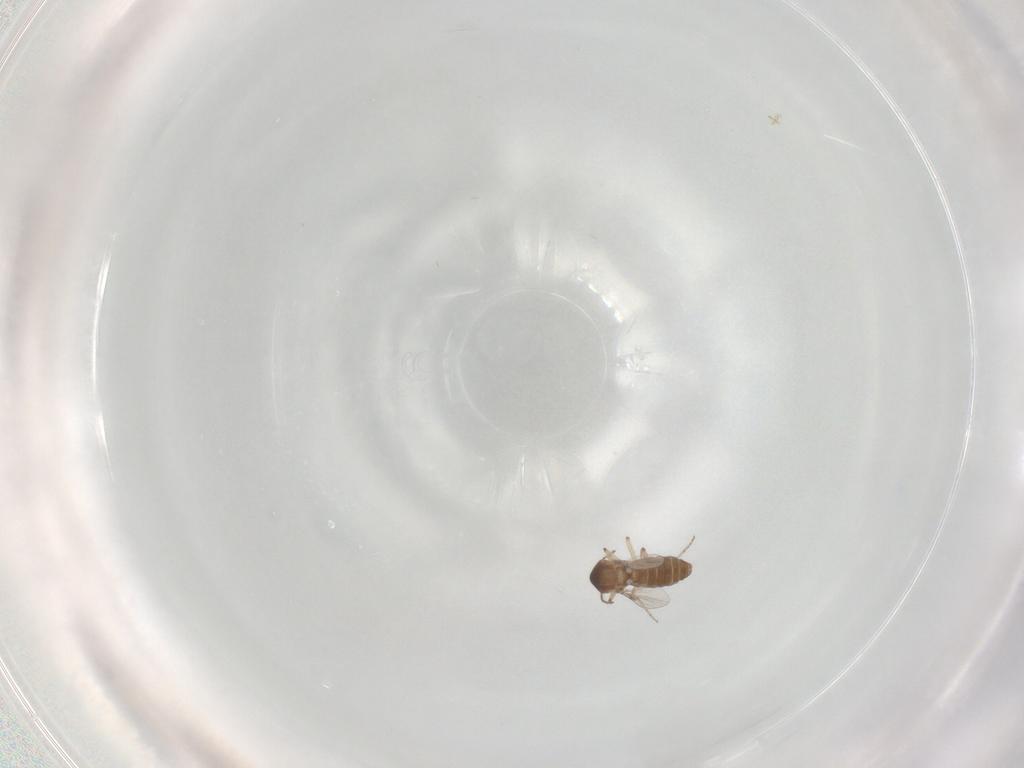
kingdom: Animalia
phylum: Arthropoda
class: Insecta
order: Diptera
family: Ceratopogonidae
